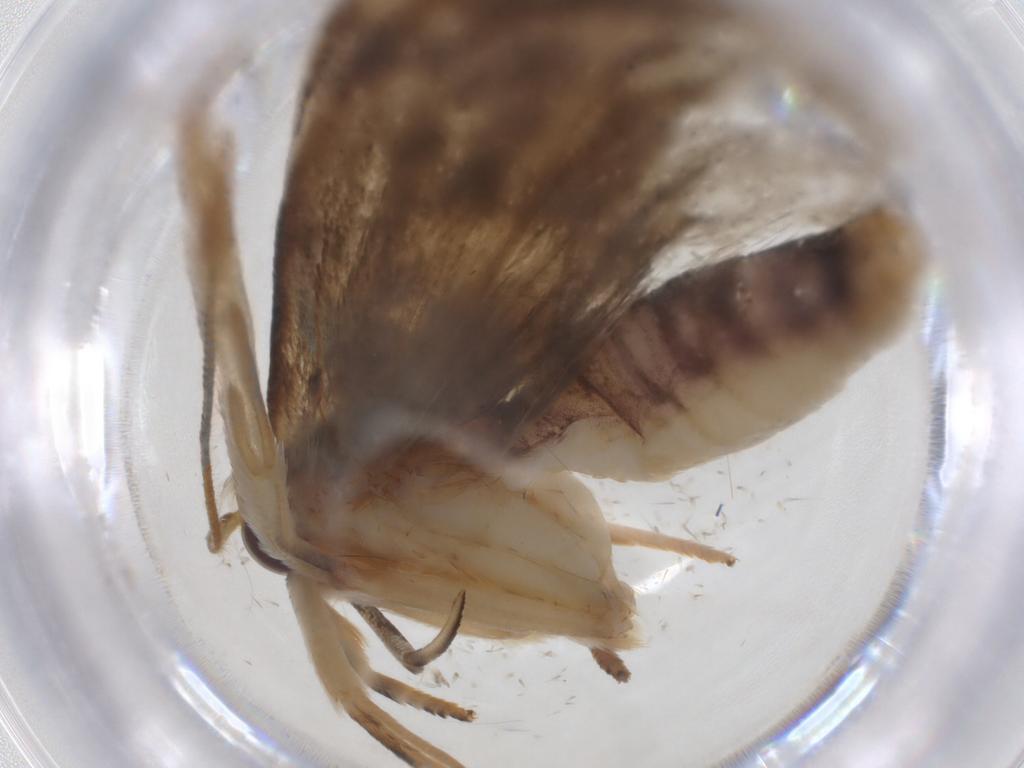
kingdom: Animalia
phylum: Arthropoda
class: Insecta
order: Lepidoptera
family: Depressariidae
